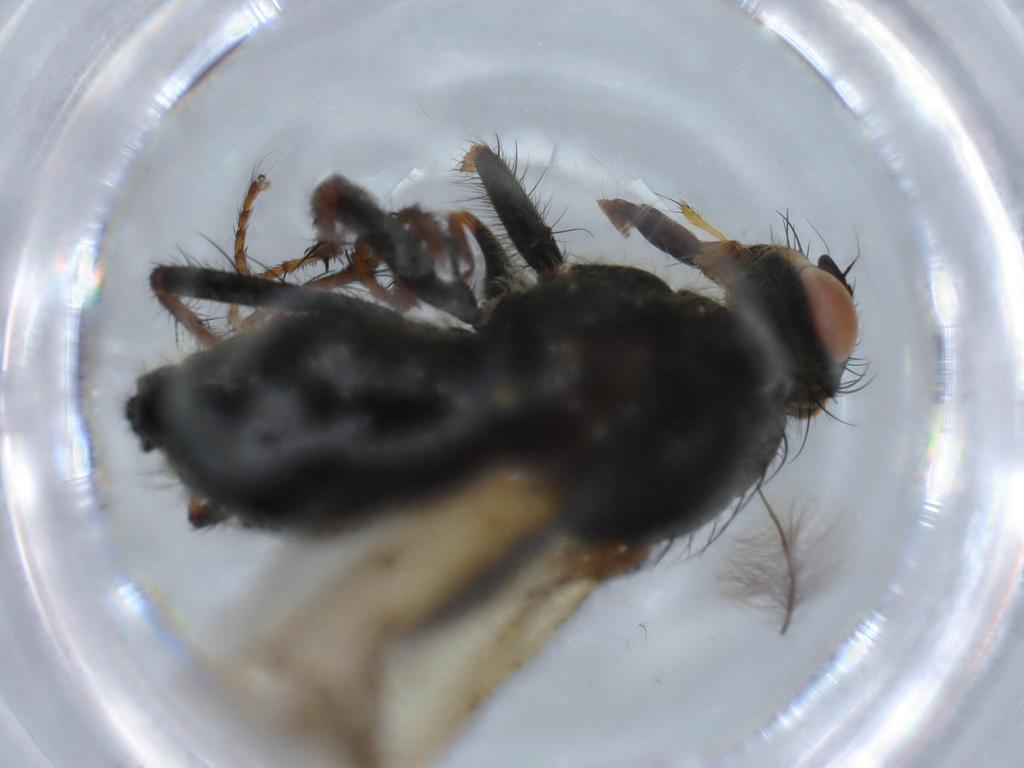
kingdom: Animalia
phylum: Arthropoda
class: Insecta
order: Diptera
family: Scathophagidae
